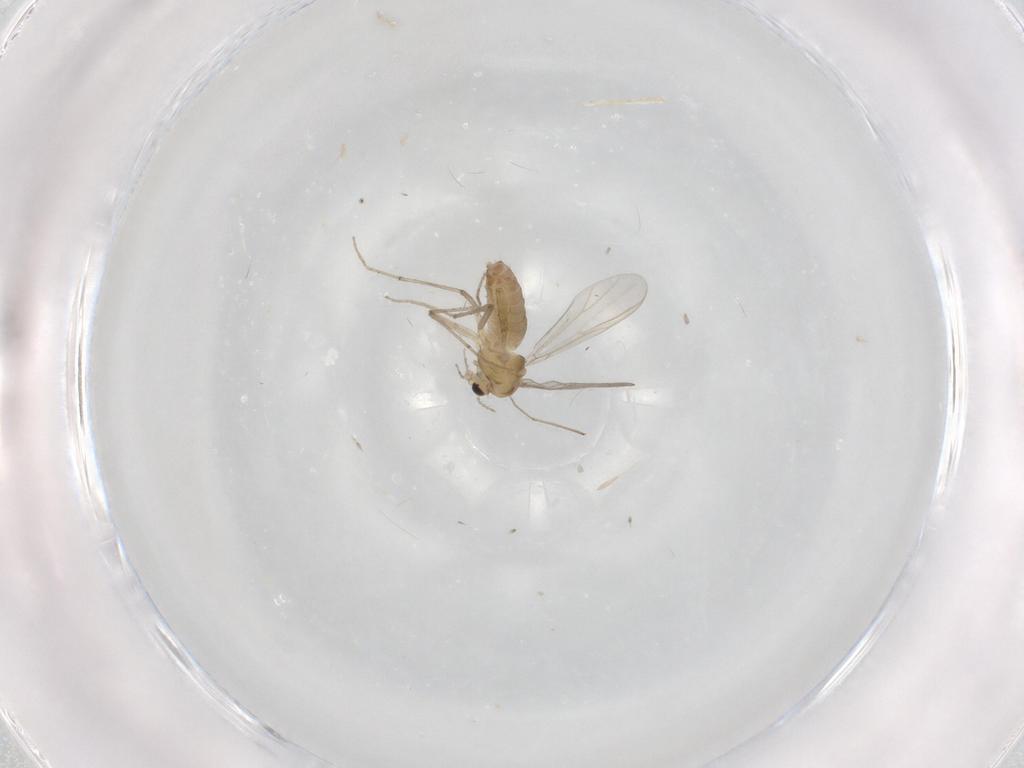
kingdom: Animalia
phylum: Arthropoda
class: Insecta
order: Diptera
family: Chironomidae
